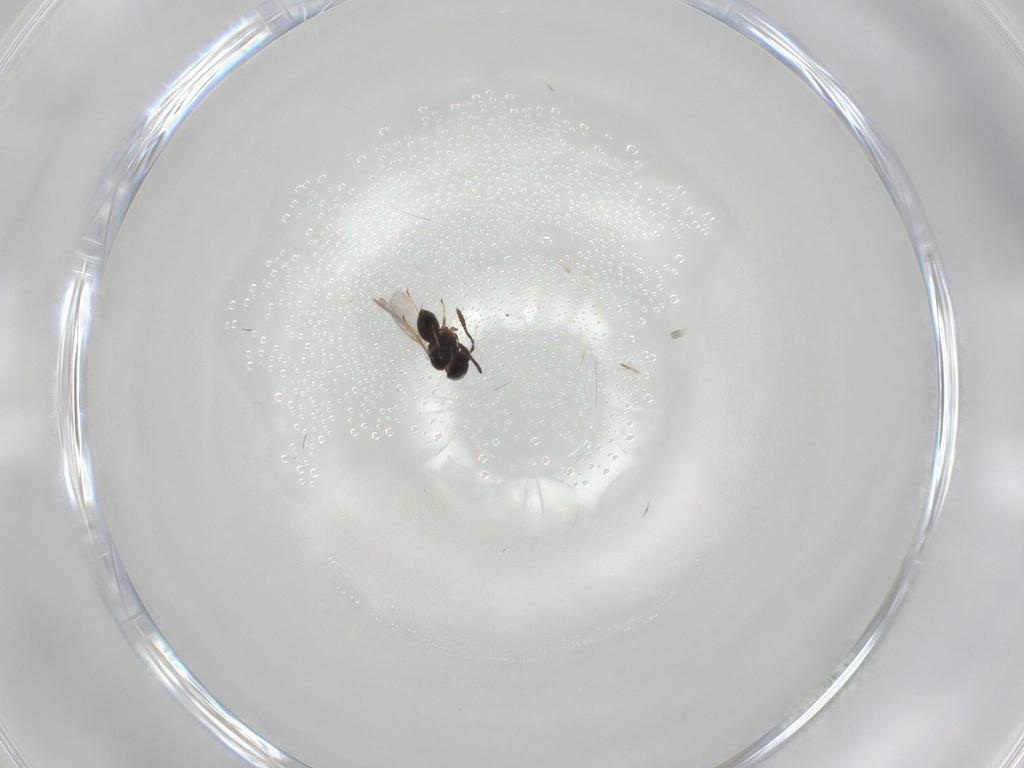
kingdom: Animalia
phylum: Arthropoda
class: Insecta
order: Hymenoptera
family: Scelionidae
